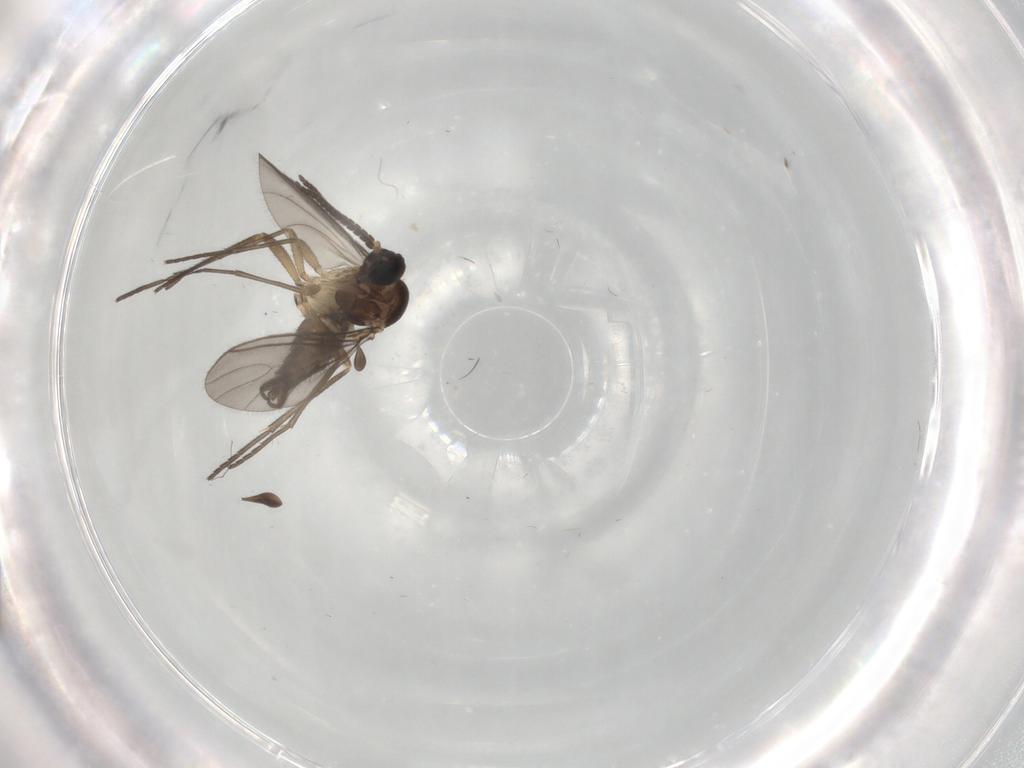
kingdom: Animalia
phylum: Arthropoda
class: Insecta
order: Diptera
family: Sciaridae
